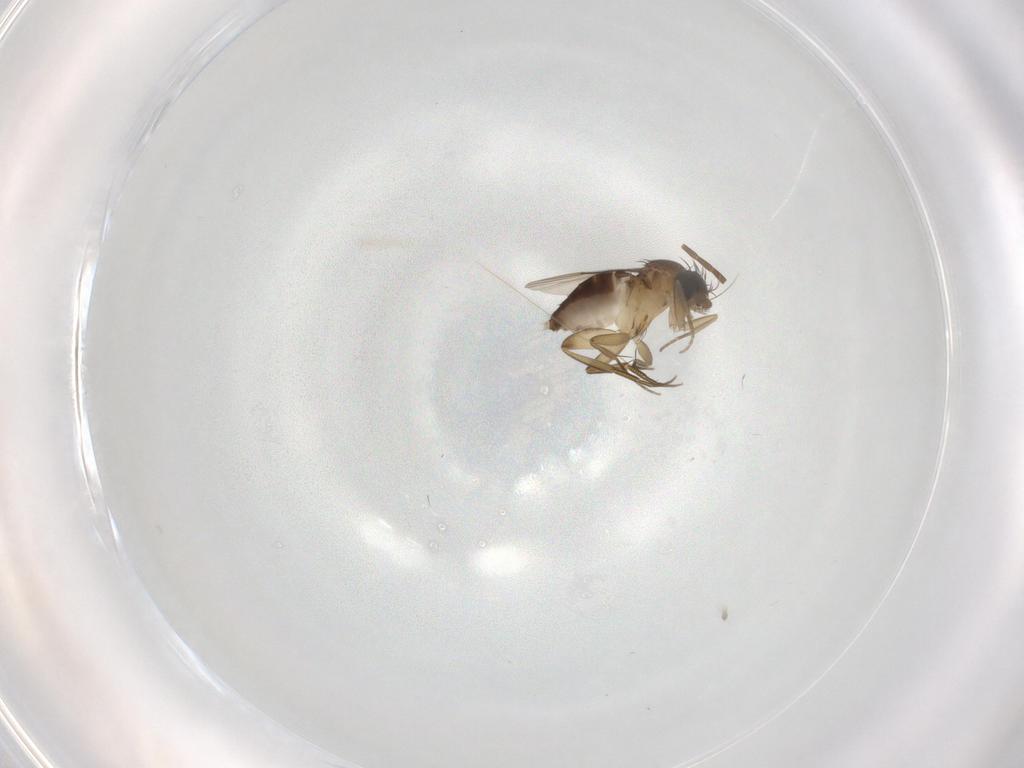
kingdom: Animalia
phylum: Arthropoda
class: Insecta
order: Diptera
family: Phoridae
